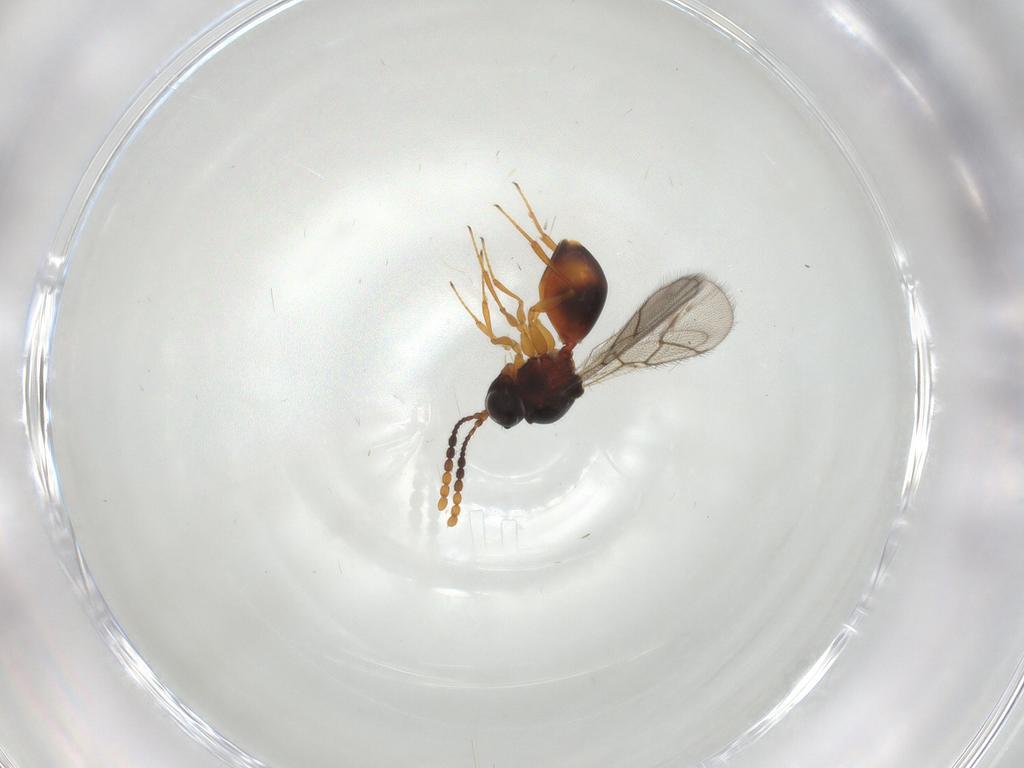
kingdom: Animalia
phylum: Arthropoda
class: Insecta
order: Hymenoptera
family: Figitidae
